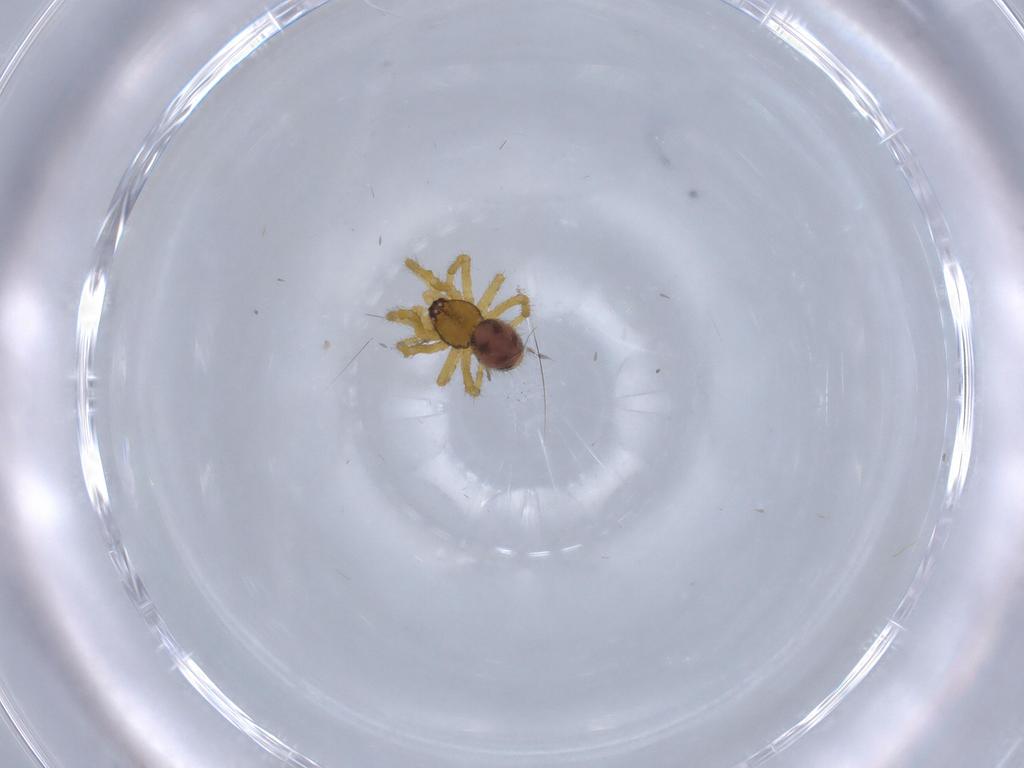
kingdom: Animalia
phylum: Arthropoda
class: Arachnida
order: Araneae
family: Theridiidae
